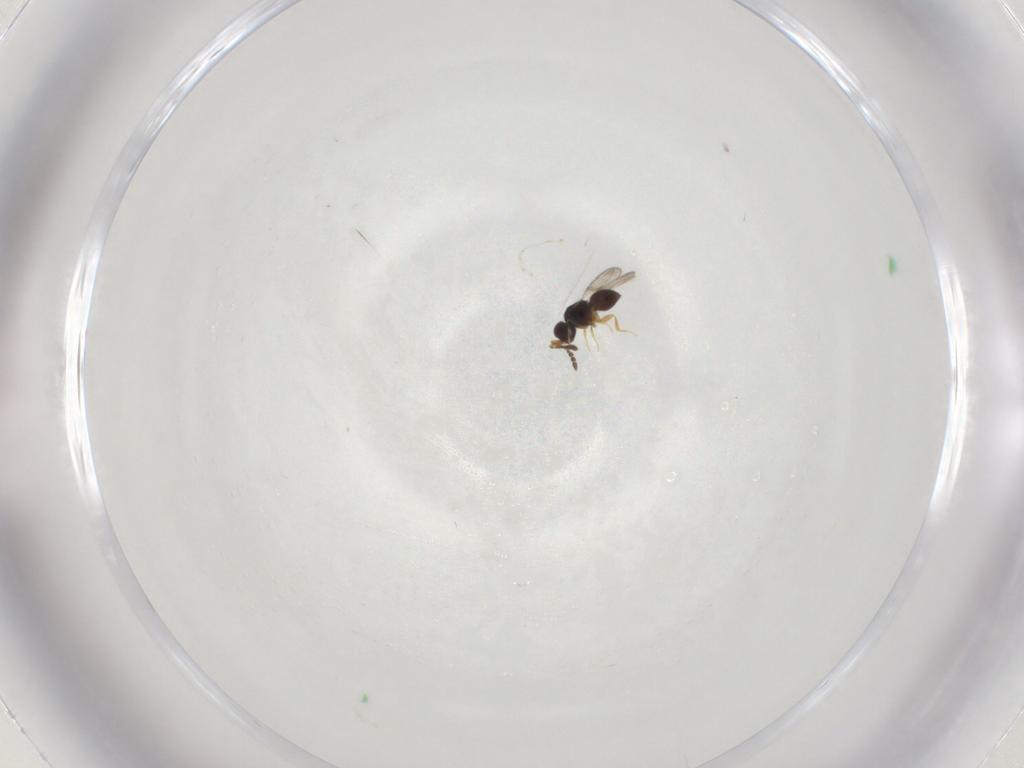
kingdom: Animalia
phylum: Arthropoda
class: Insecta
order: Hymenoptera
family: Ceraphronidae
